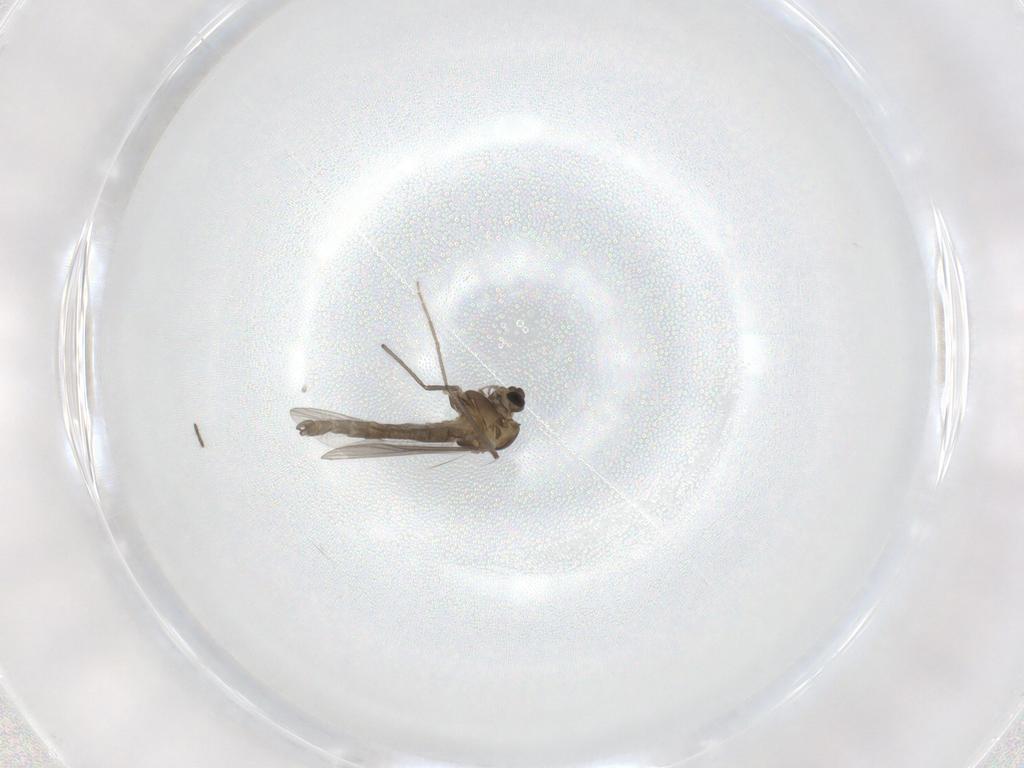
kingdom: Animalia
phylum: Arthropoda
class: Insecta
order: Diptera
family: Chironomidae
